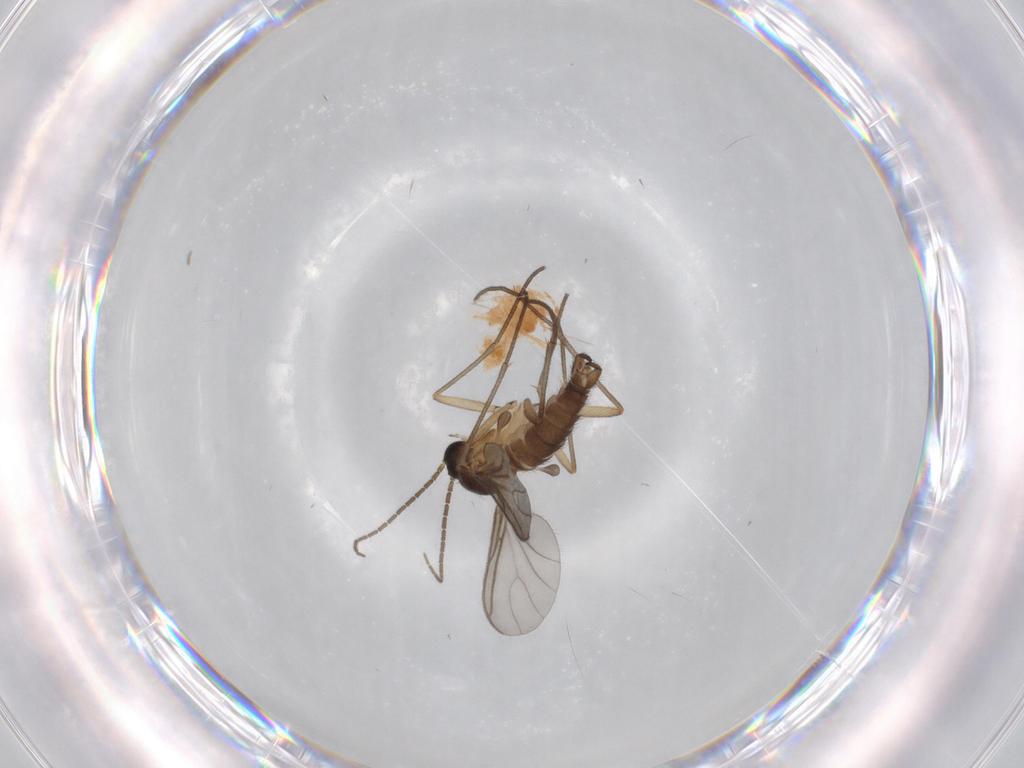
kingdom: Animalia
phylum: Arthropoda
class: Insecta
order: Diptera
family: Sciaridae
